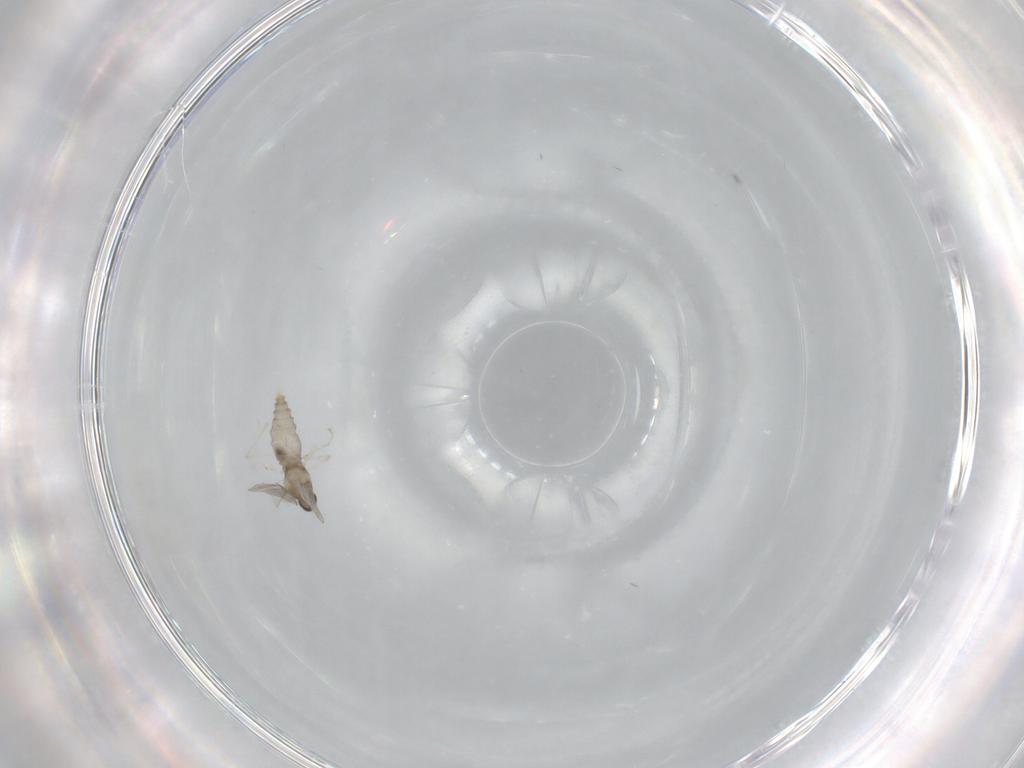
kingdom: Animalia
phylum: Arthropoda
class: Insecta
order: Diptera
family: Cecidomyiidae
